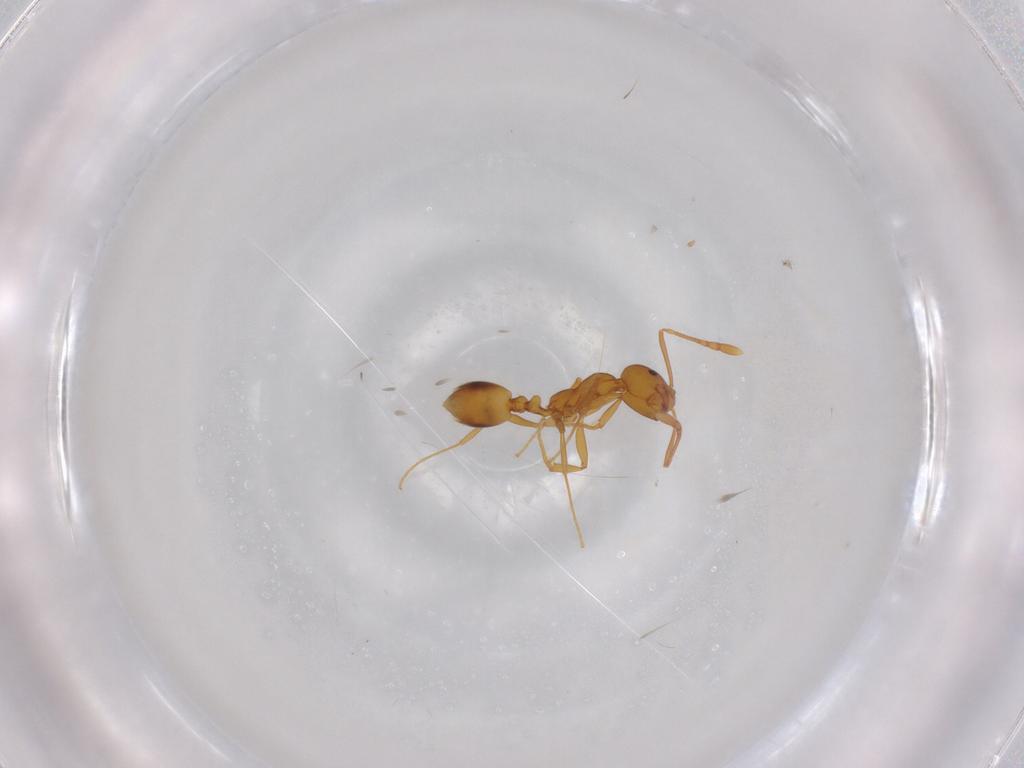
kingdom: Animalia
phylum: Arthropoda
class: Insecta
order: Hymenoptera
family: Formicidae
